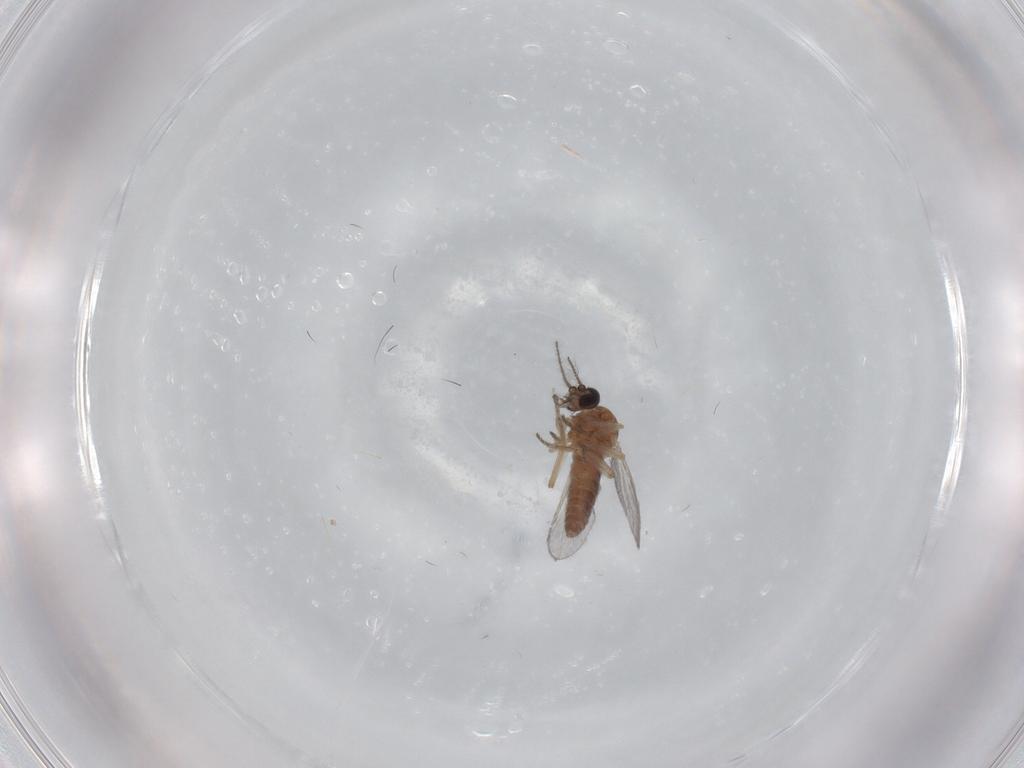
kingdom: Animalia
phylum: Arthropoda
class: Insecta
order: Diptera
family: Ceratopogonidae
